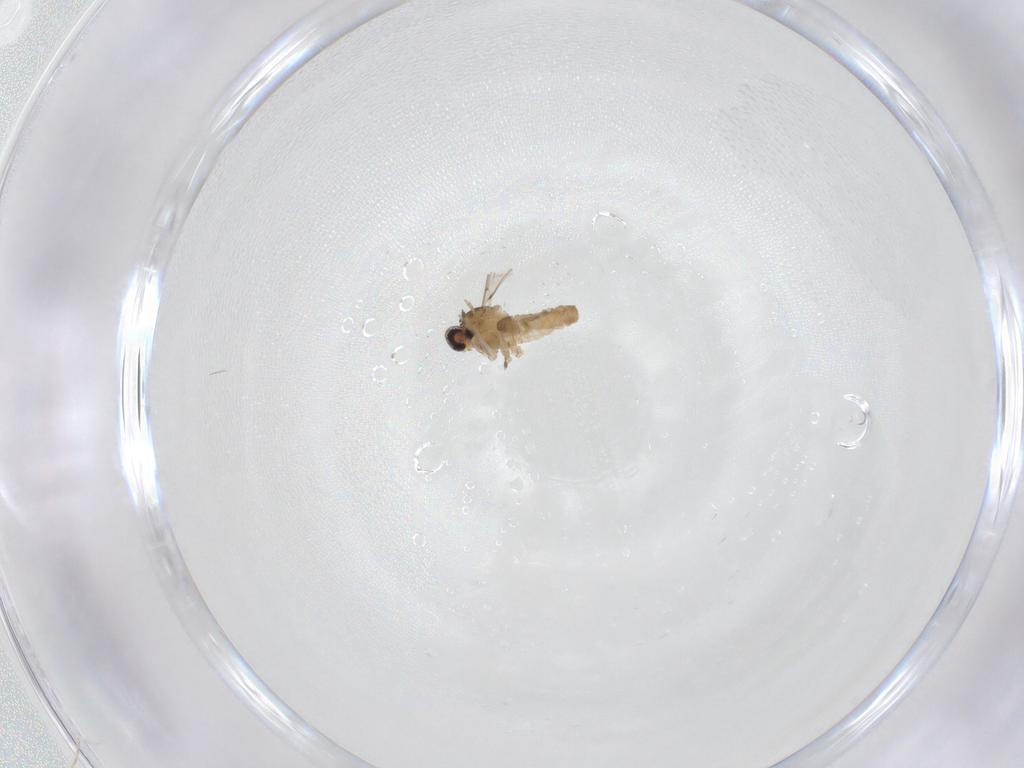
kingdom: Animalia
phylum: Arthropoda
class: Insecta
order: Diptera
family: Cecidomyiidae
